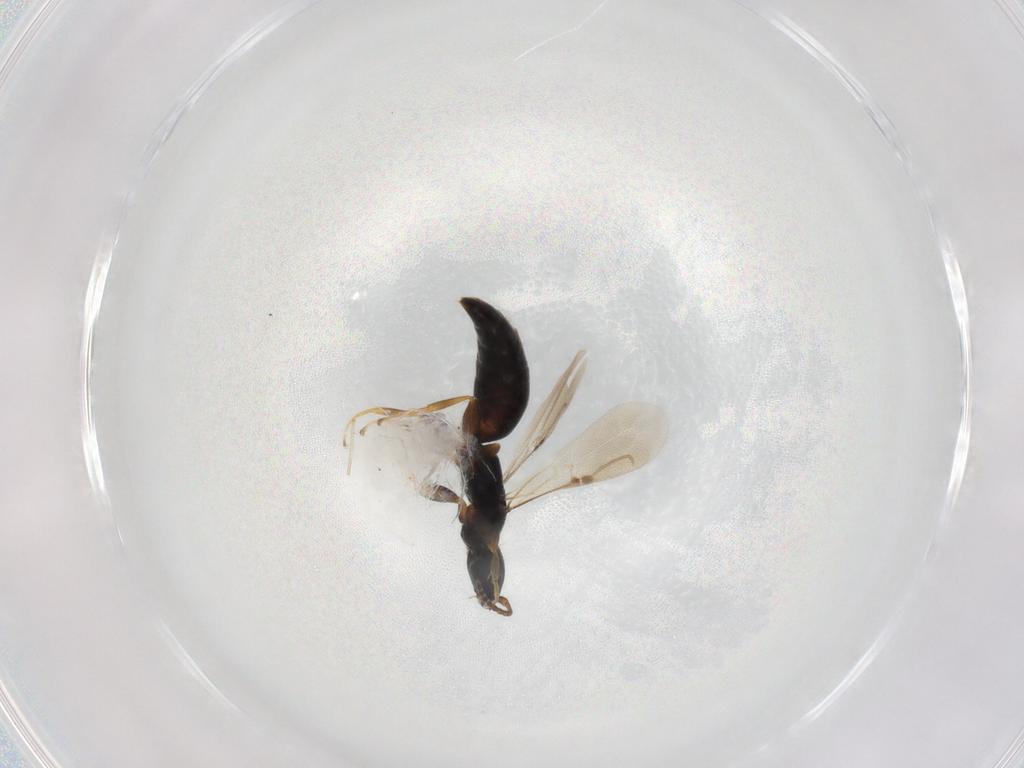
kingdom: Animalia
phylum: Arthropoda
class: Insecta
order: Hymenoptera
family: Bethylidae
